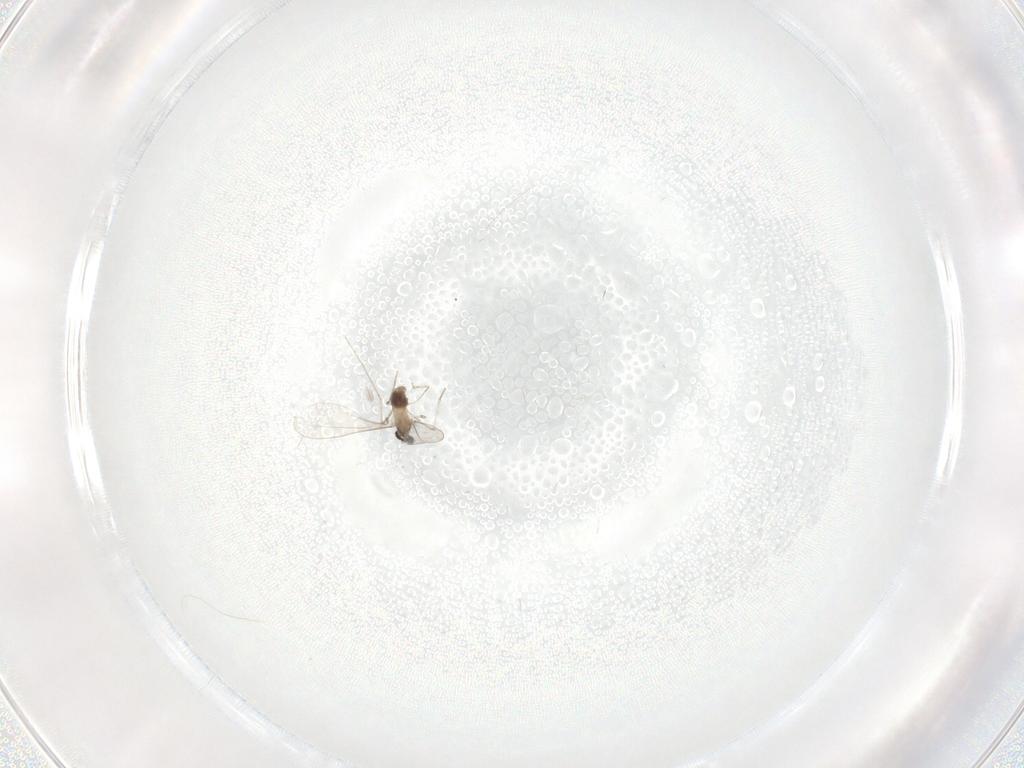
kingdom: Animalia
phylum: Arthropoda
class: Insecta
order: Diptera
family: Cecidomyiidae
